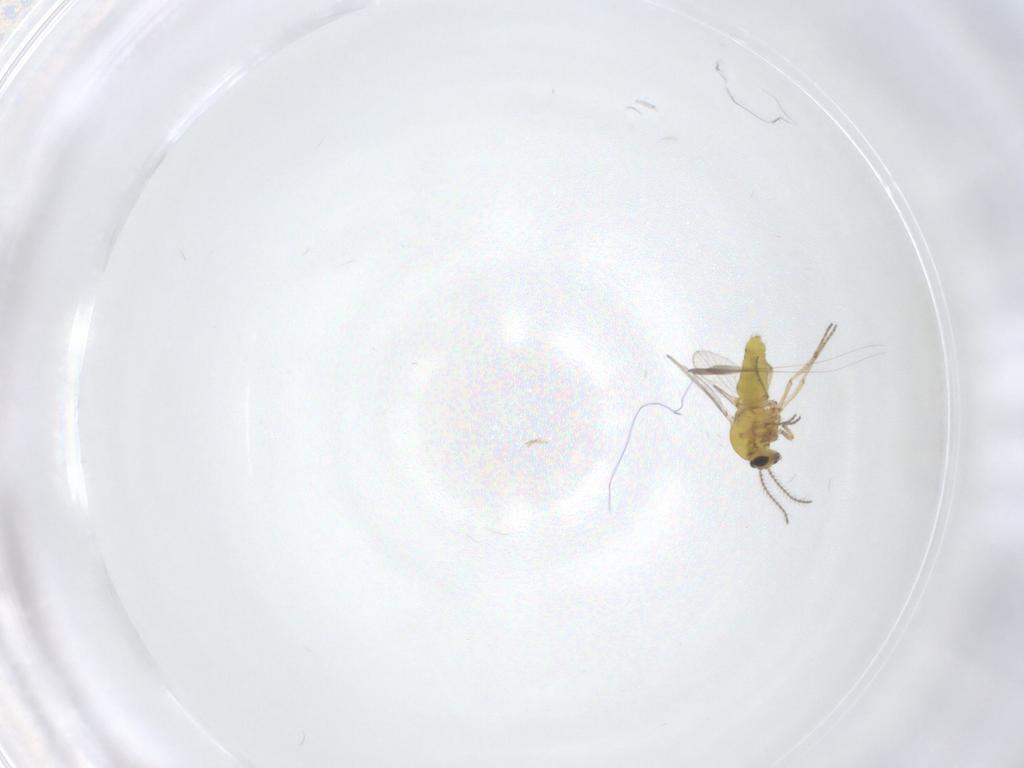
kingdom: Animalia
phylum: Arthropoda
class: Insecta
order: Diptera
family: Ceratopogonidae
